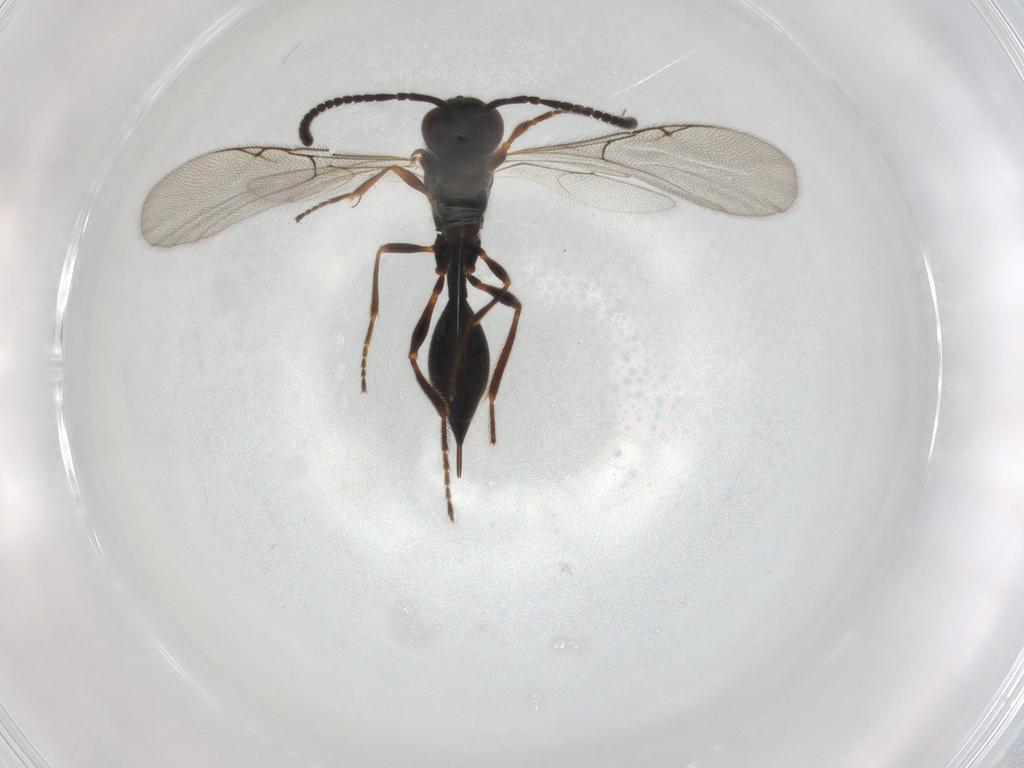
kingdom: Animalia
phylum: Arthropoda
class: Insecta
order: Hymenoptera
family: Diapriidae
